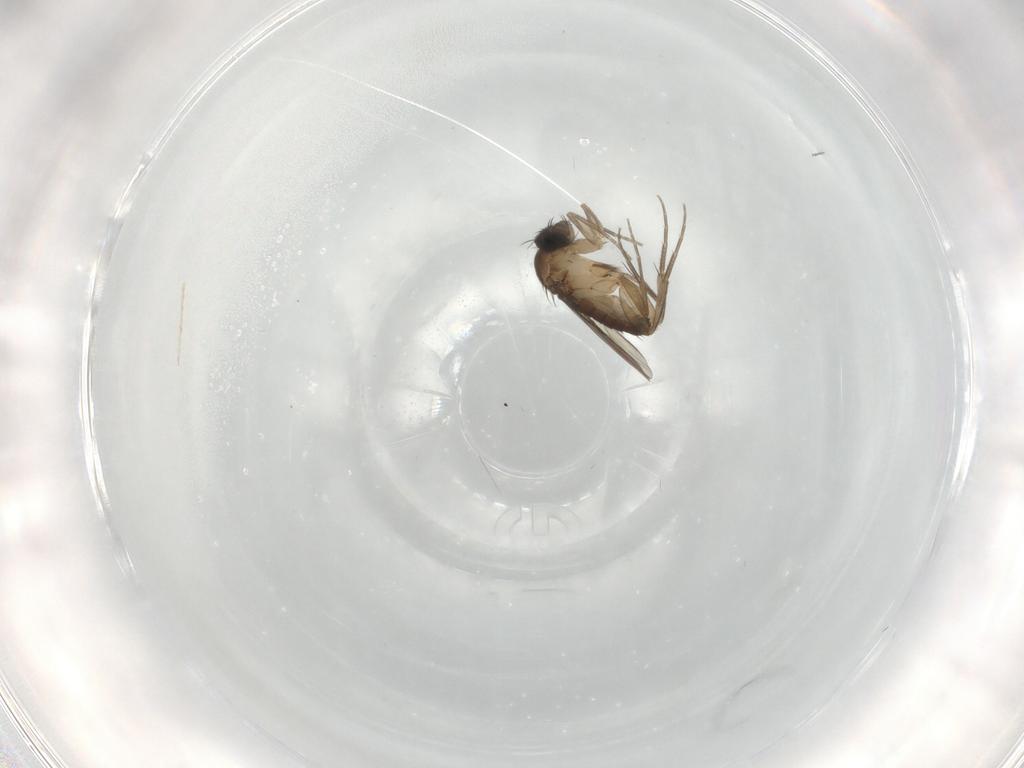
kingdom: Animalia
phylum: Arthropoda
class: Insecta
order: Diptera
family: Phoridae
